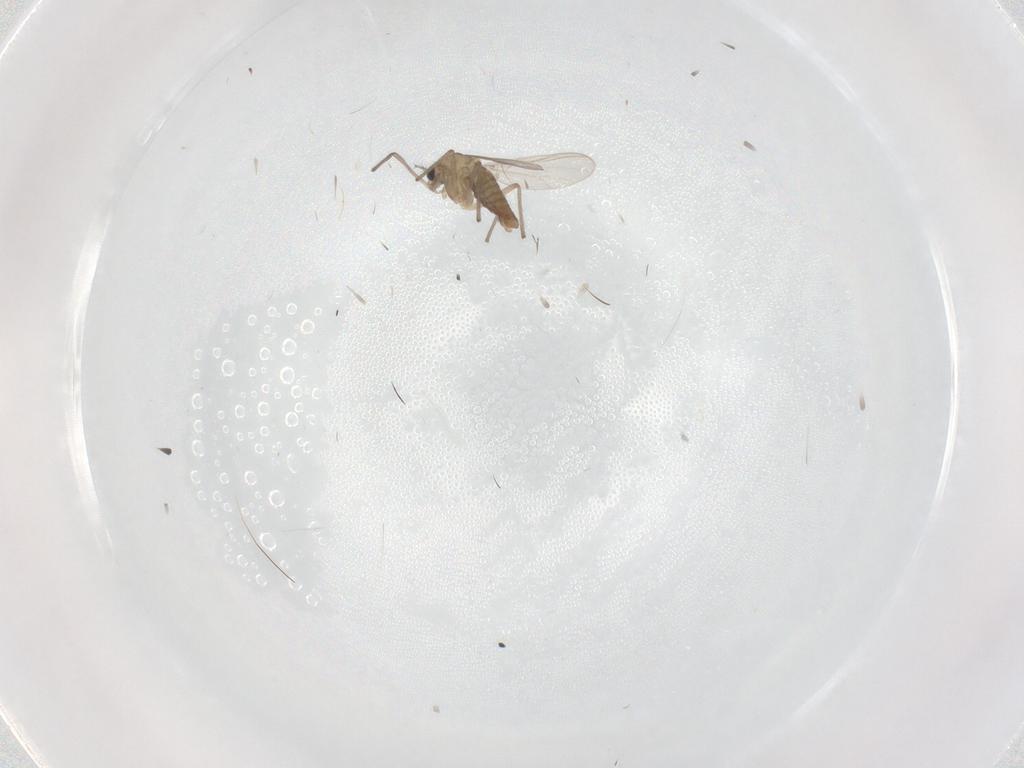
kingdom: Animalia
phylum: Arthropoda
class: Insecta
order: Diptera
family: Chironomidae
